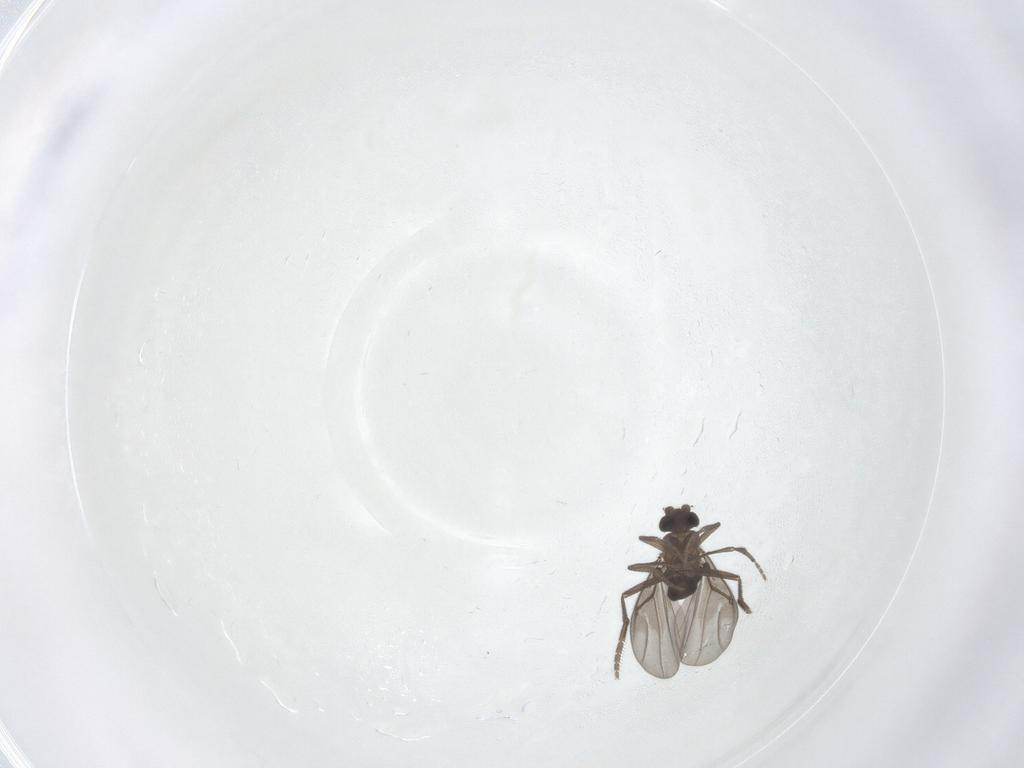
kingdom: Animalia
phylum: Arthropoda
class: Insecta
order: Diptera
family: Phoridae
